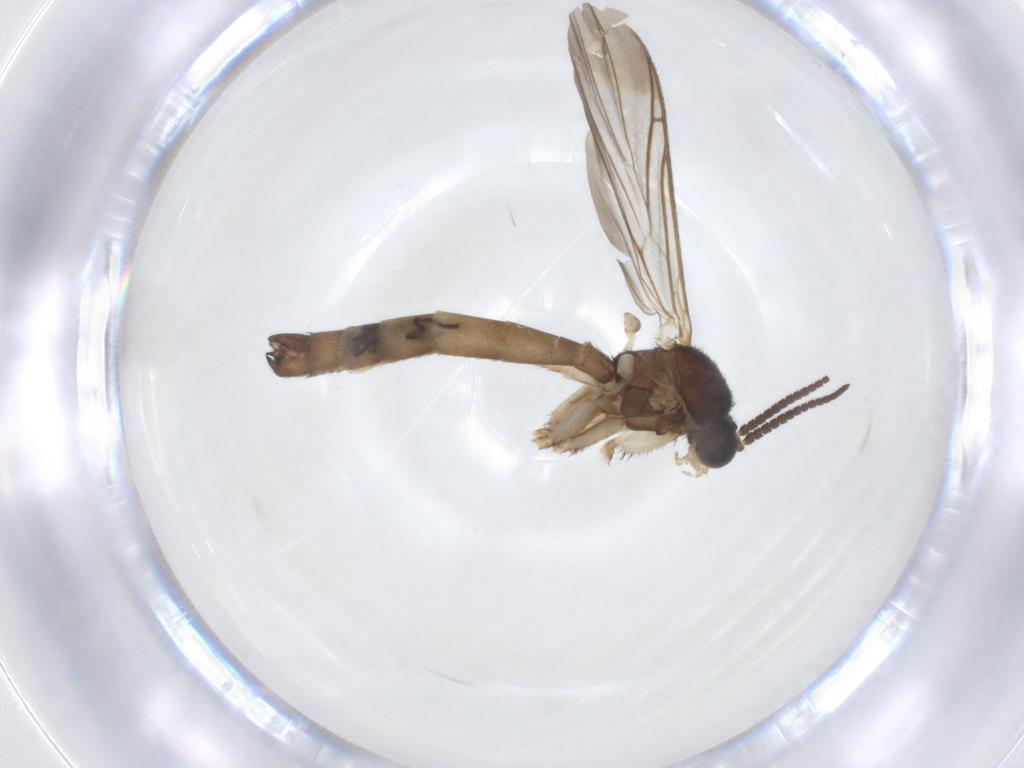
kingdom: Animalia
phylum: Arthropoda
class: Insecta
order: Diptera
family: Keroplatidae
